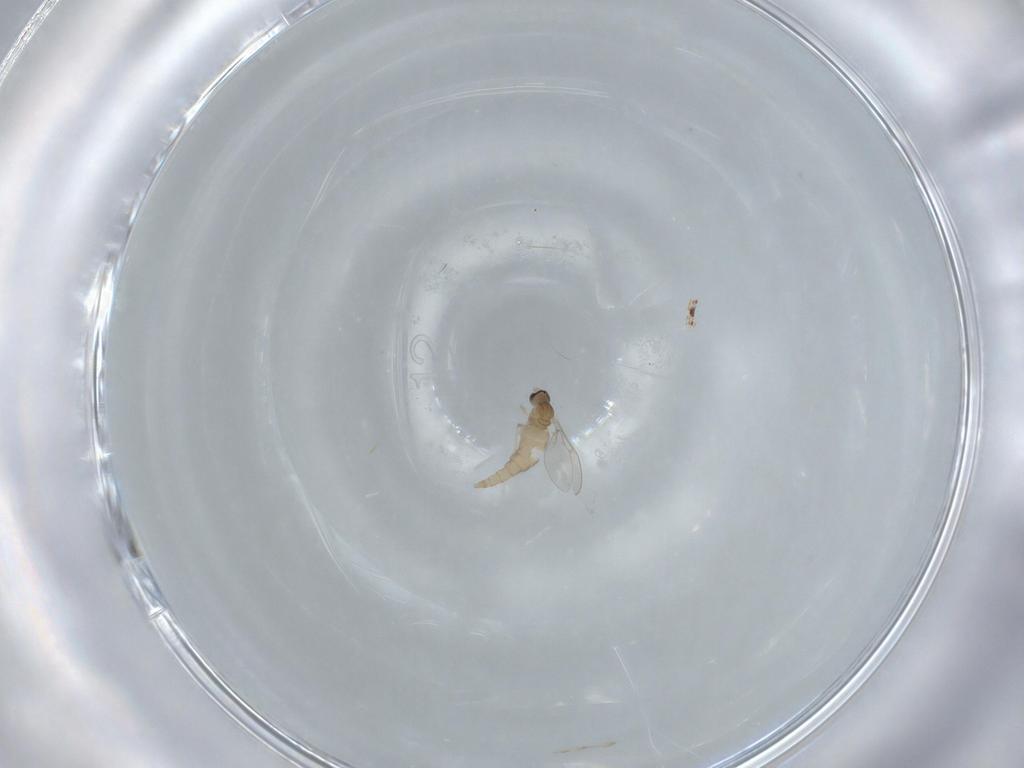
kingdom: Animalia
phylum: Arthropoda
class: Insecta
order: Diptera
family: Cecidomyiidae
